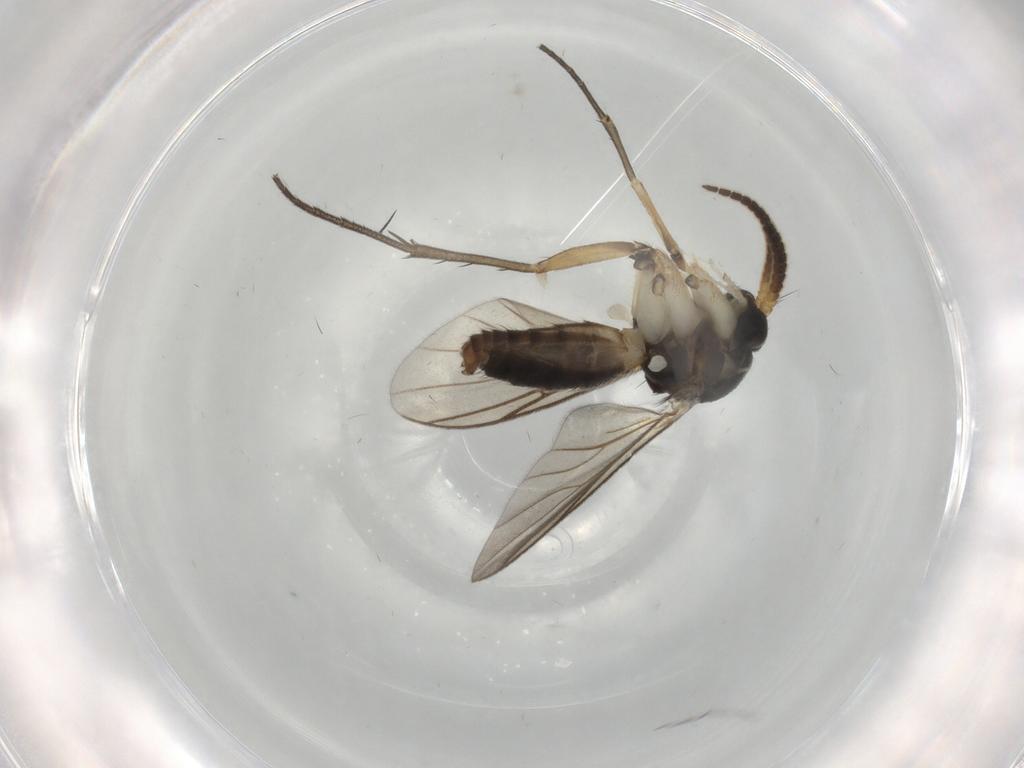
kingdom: Animalia
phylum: Arthropoda
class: Insecta
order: Diptera
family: Mycetophilidae
